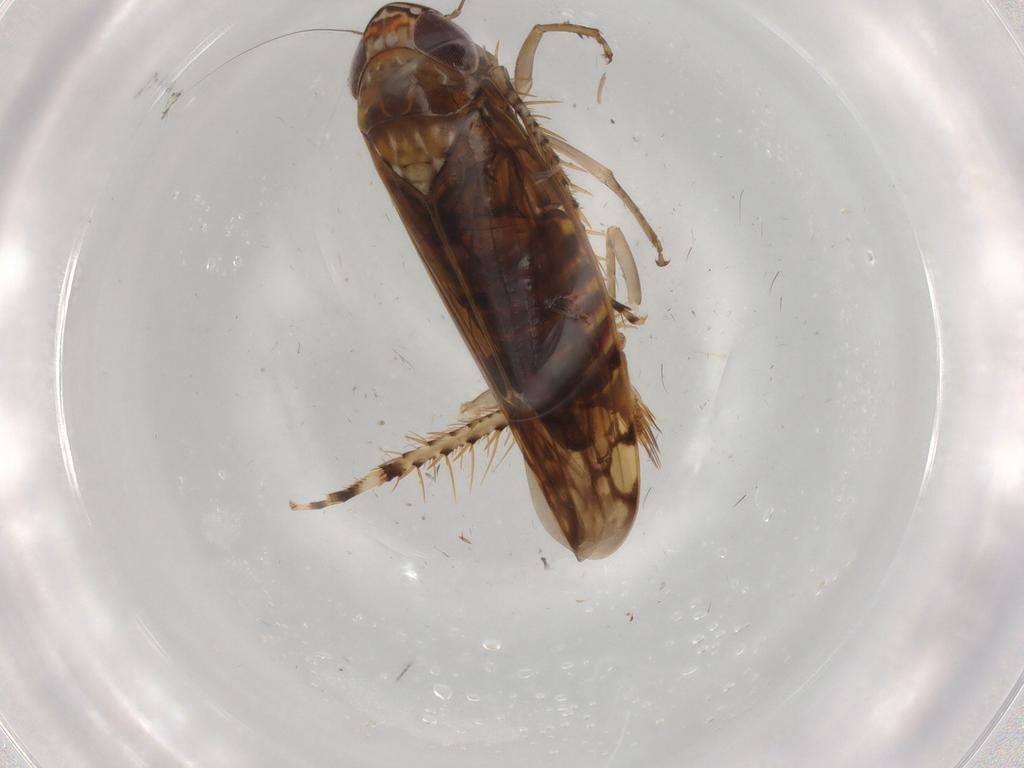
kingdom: Animalia
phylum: Arthropoda
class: Insecta
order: Hemiptera
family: Cicadellidae
